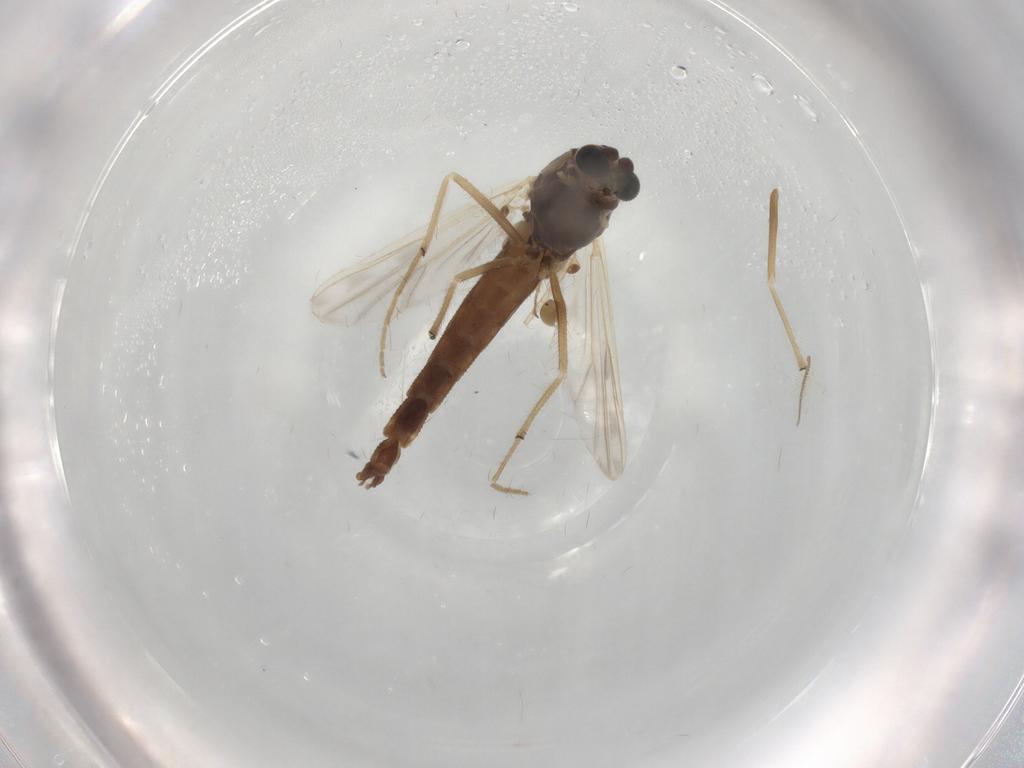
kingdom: Animalia
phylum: Arthropoda
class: Insecta
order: Diptera
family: Chironomidae
